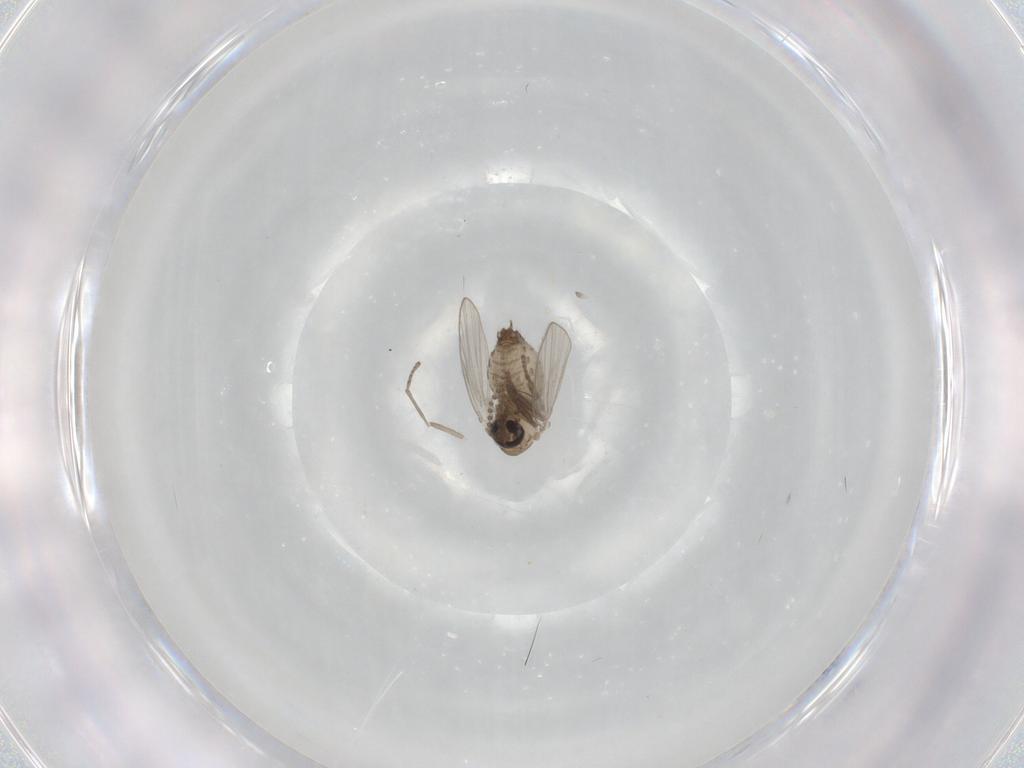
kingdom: Animalia
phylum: Arthropoda
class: Insecta
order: Diptera
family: Psychodidae
